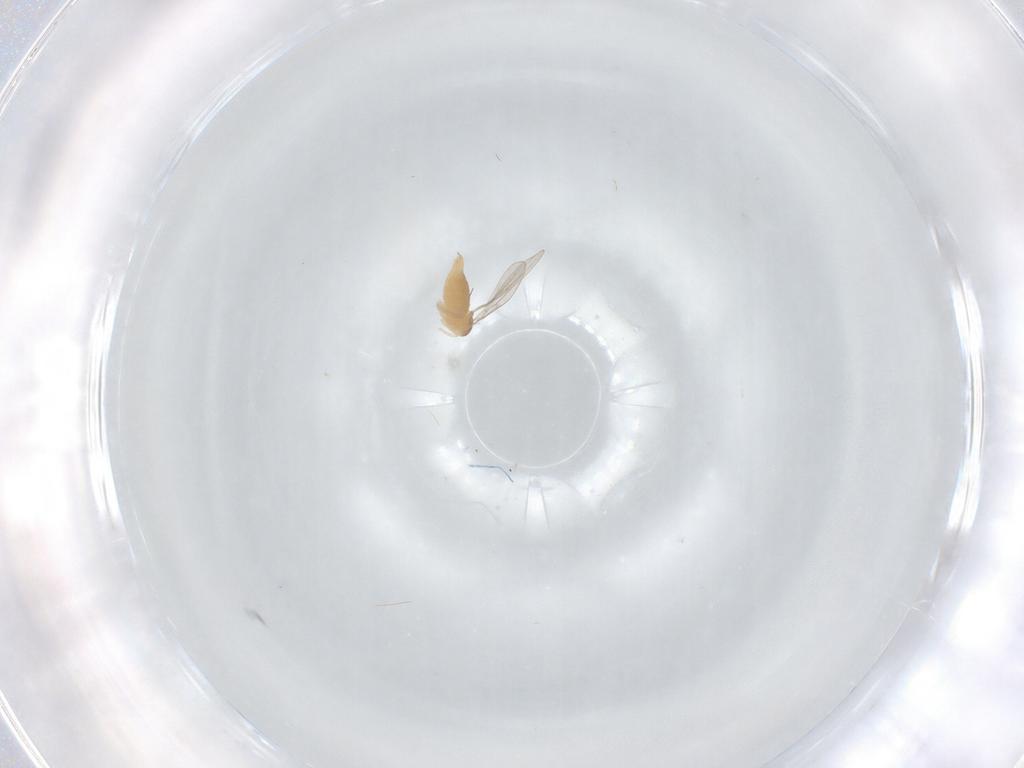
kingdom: Animalia
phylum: Arthropoda
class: Insecta
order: Diptera
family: Cecidomyiidae
